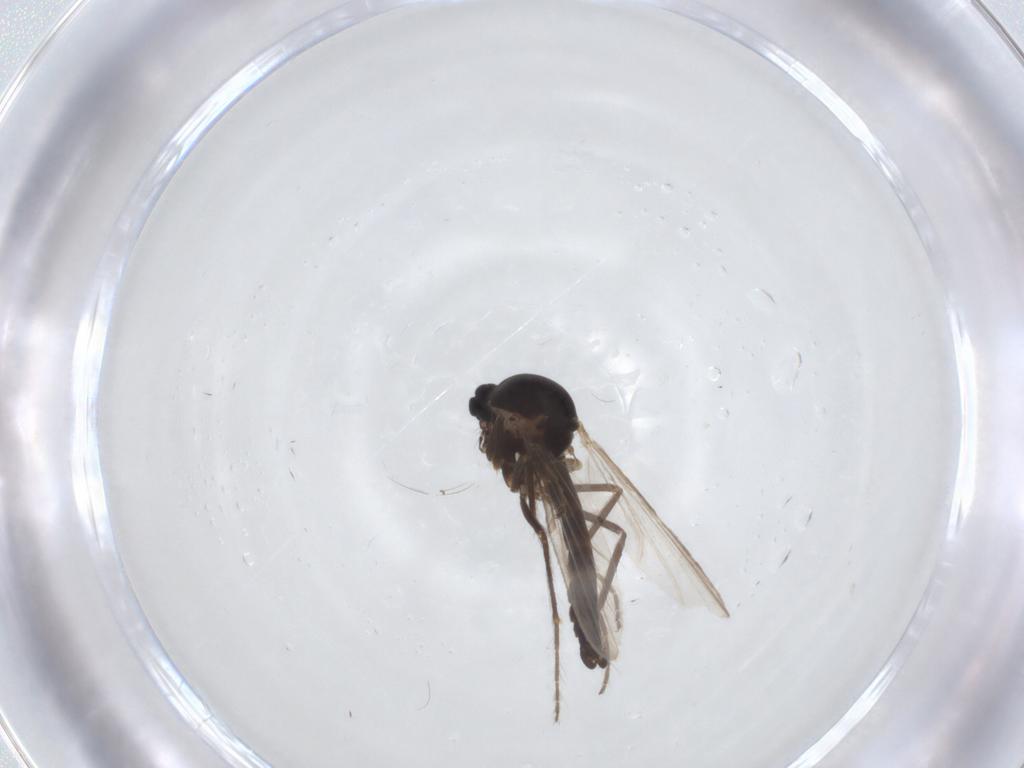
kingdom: Animalia
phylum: Arthropoda
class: Insecta
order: Diptera
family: Ceratopogonidae
